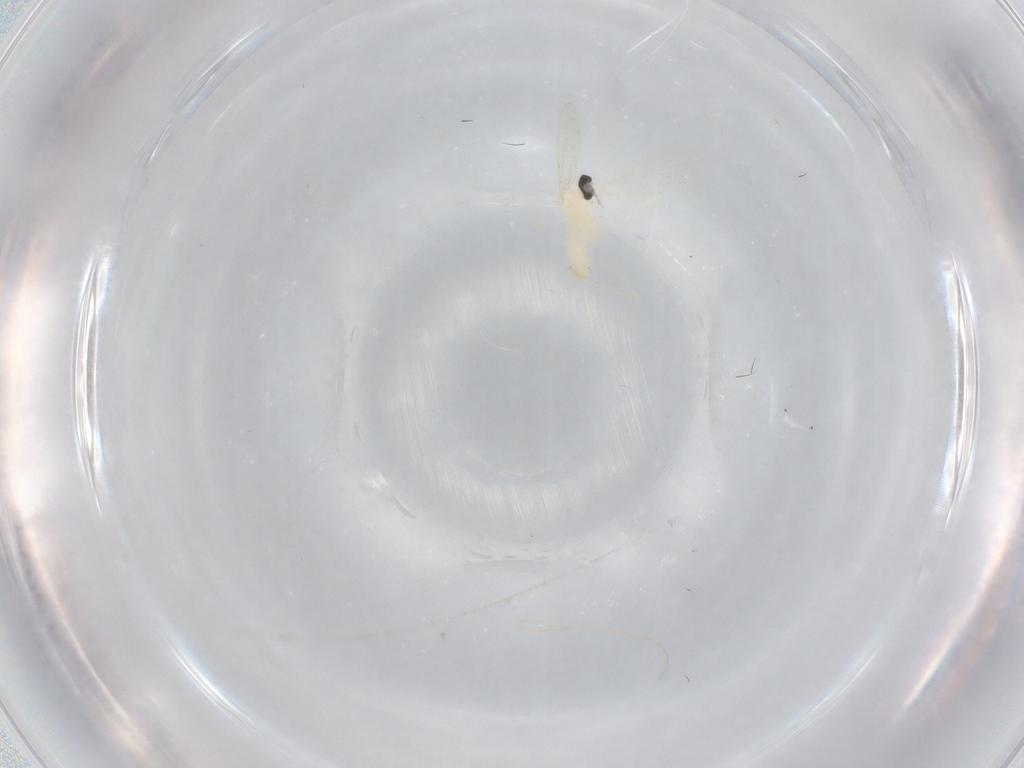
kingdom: Animalia
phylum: Arthropoda
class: Insecta
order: Diptera
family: Cecidomyiidae
